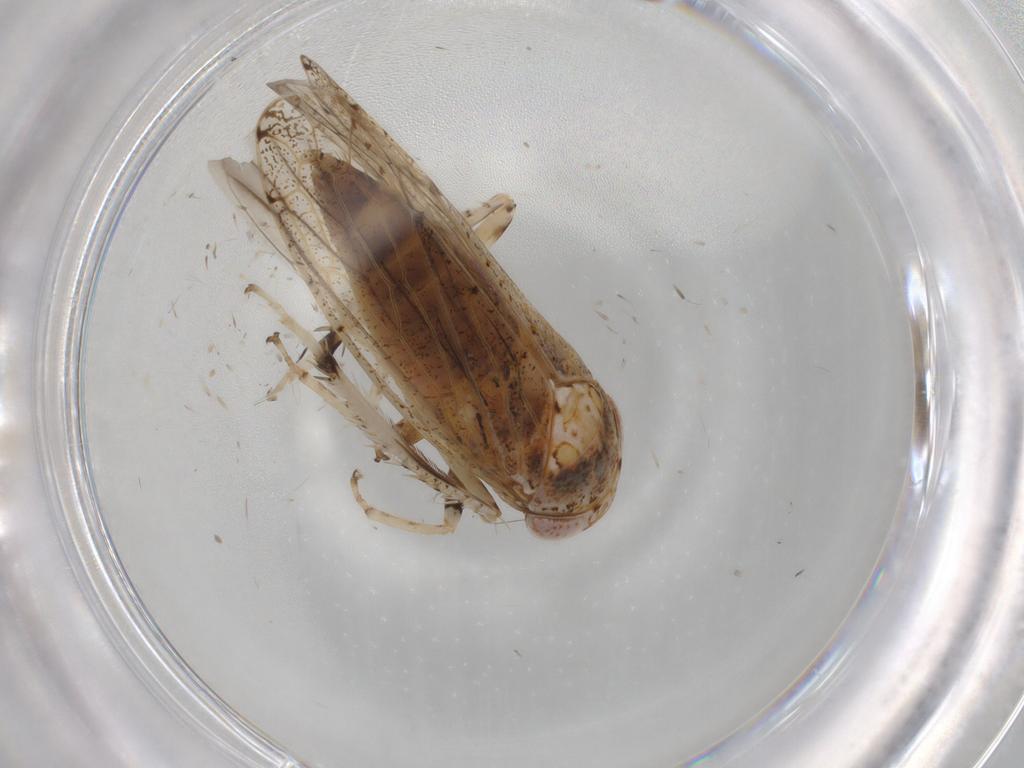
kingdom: Animalia
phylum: Arthropoda
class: Insecta
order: Hemiptera
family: Cicadellidae
